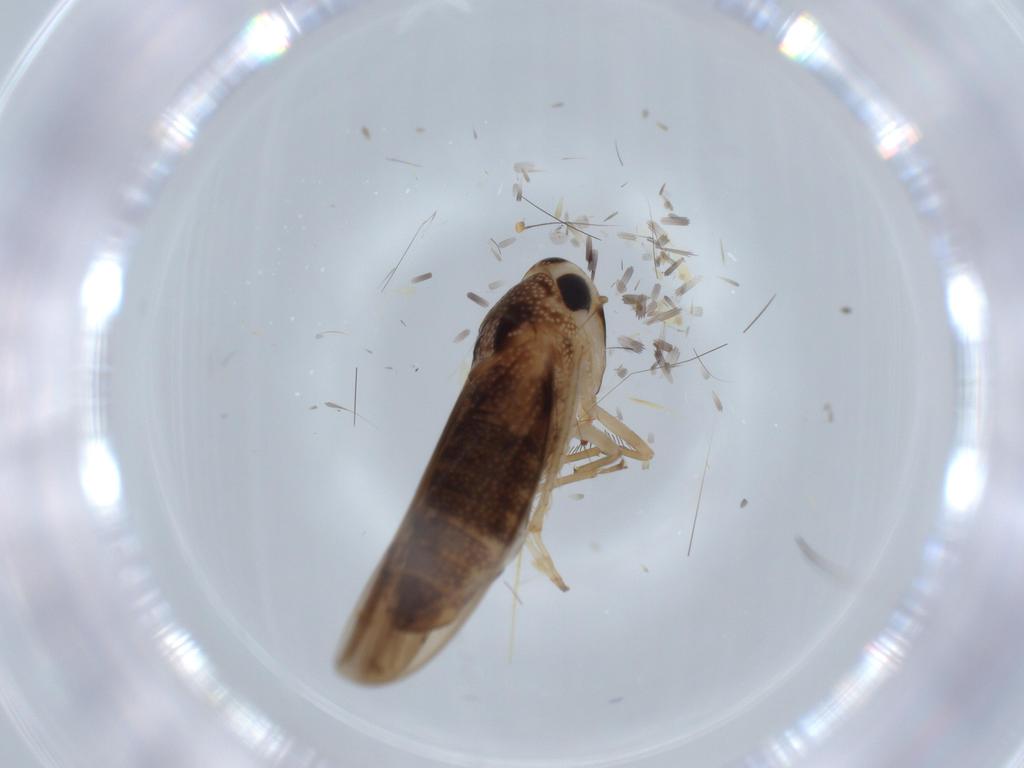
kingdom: Animalia
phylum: Arthropoda
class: Insecta
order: Hemiptera
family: Cicadellidae
